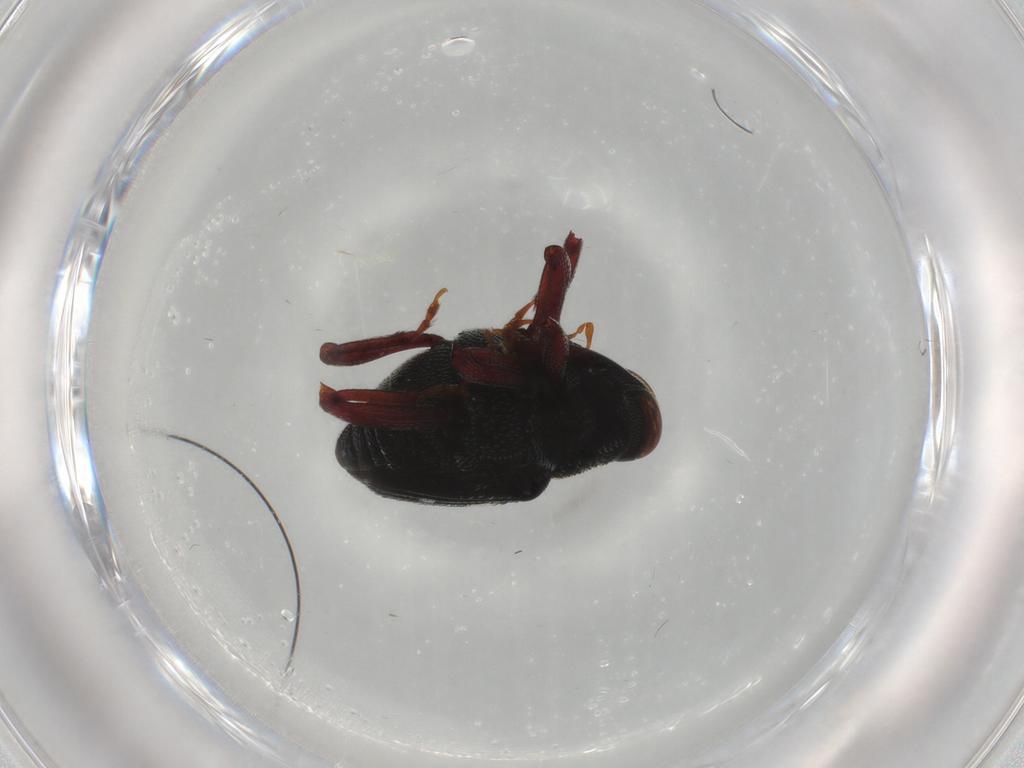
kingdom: Animalia
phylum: Arthropoda
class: Insecta
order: Coleoptera
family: Curculionidae
